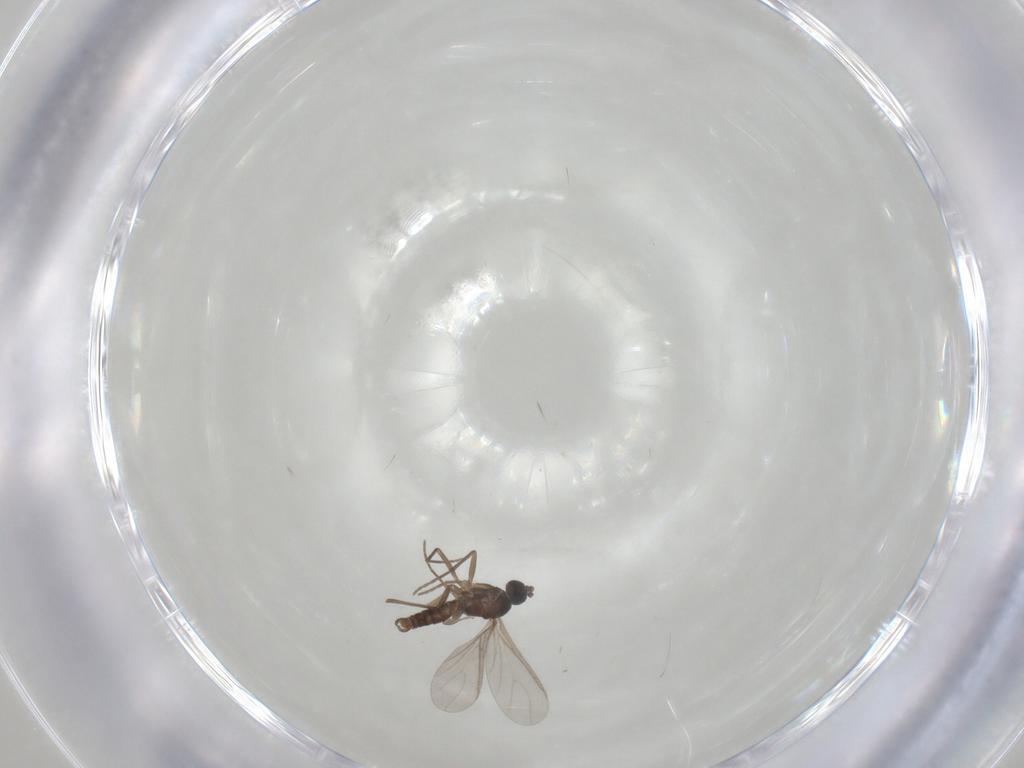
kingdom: Animalia
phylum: Arthropoda
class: Insecta
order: Diptera
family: Sciaridae
